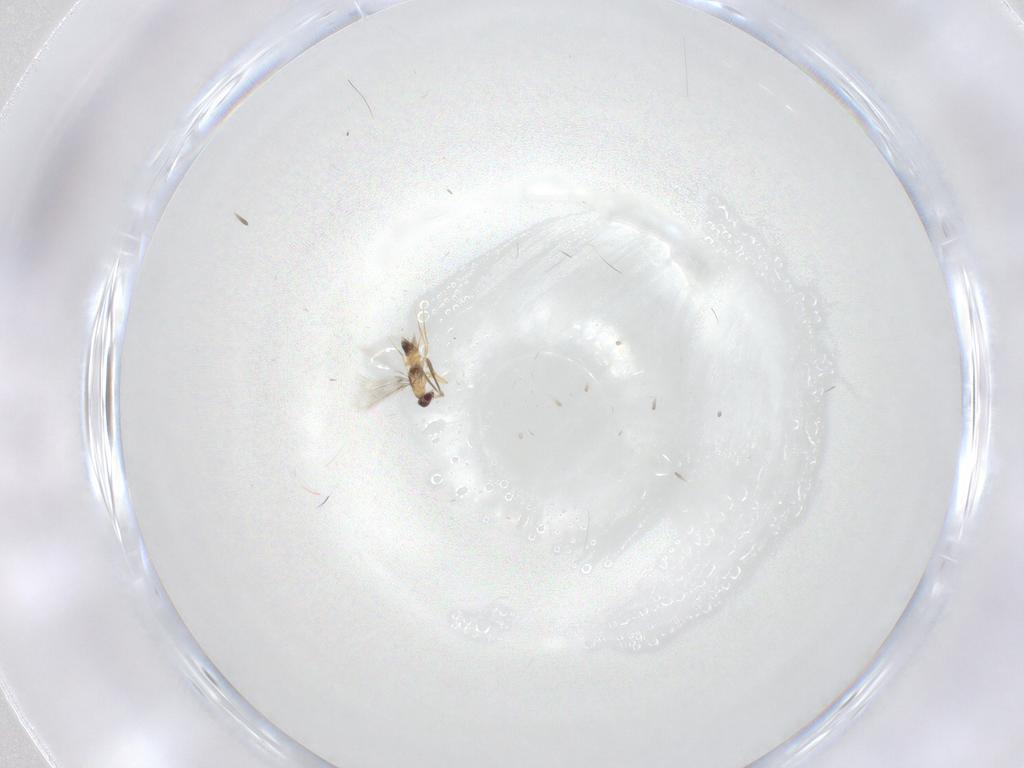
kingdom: Animalia
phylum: Arthropoda
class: Insecta
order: Hymenoptera
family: Mymaridae
